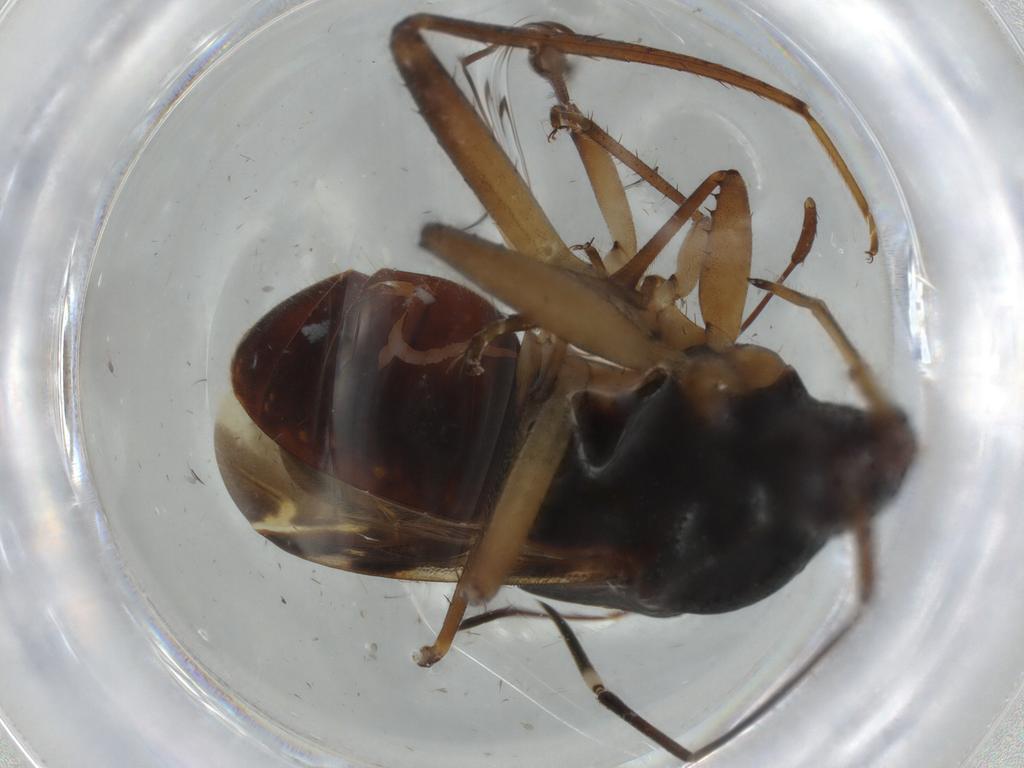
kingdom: Animalia
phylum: Arthropoda
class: Insecta
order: Hemiptera
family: Rhyparochromidae
